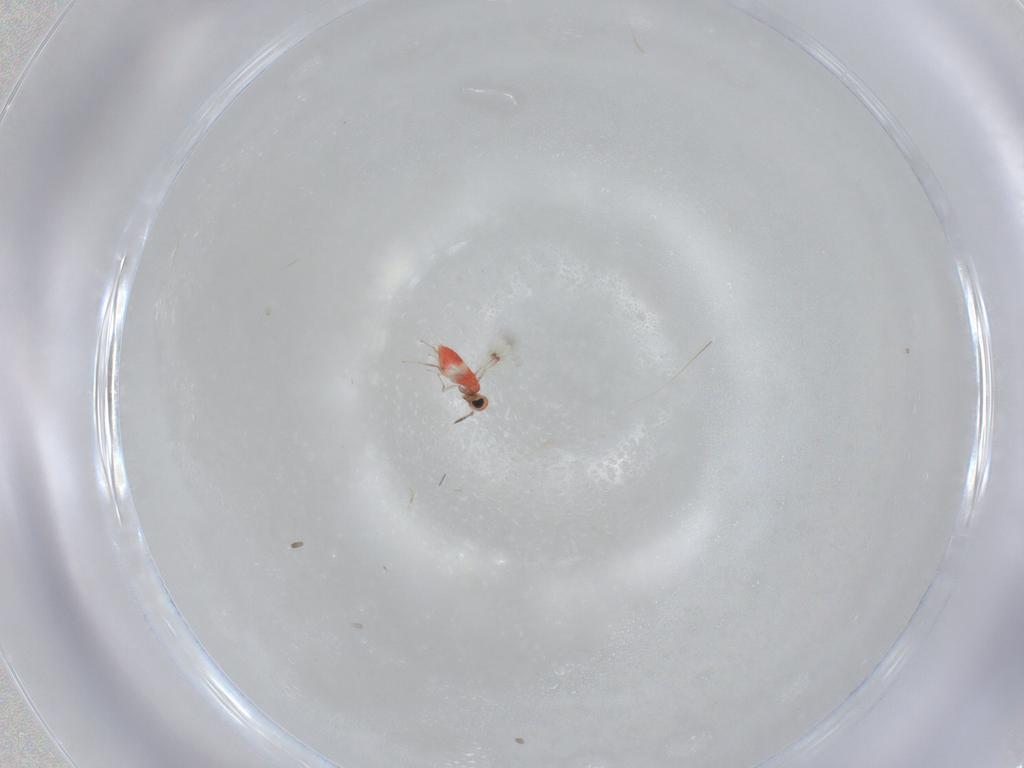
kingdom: Animalia
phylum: Arthropoda
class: Insecta
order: Hymenoptera
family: Trichogrammatidae
